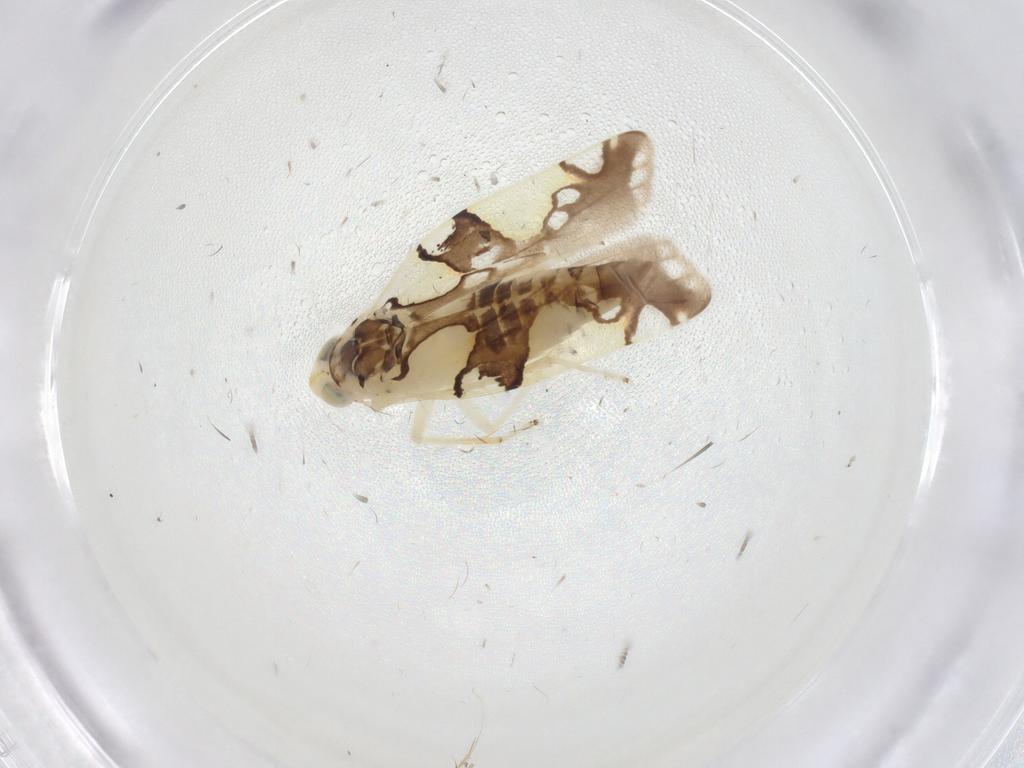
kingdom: Animalia
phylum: Arthropoda
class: Insecta
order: Hemiptera
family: Cicadellidae
